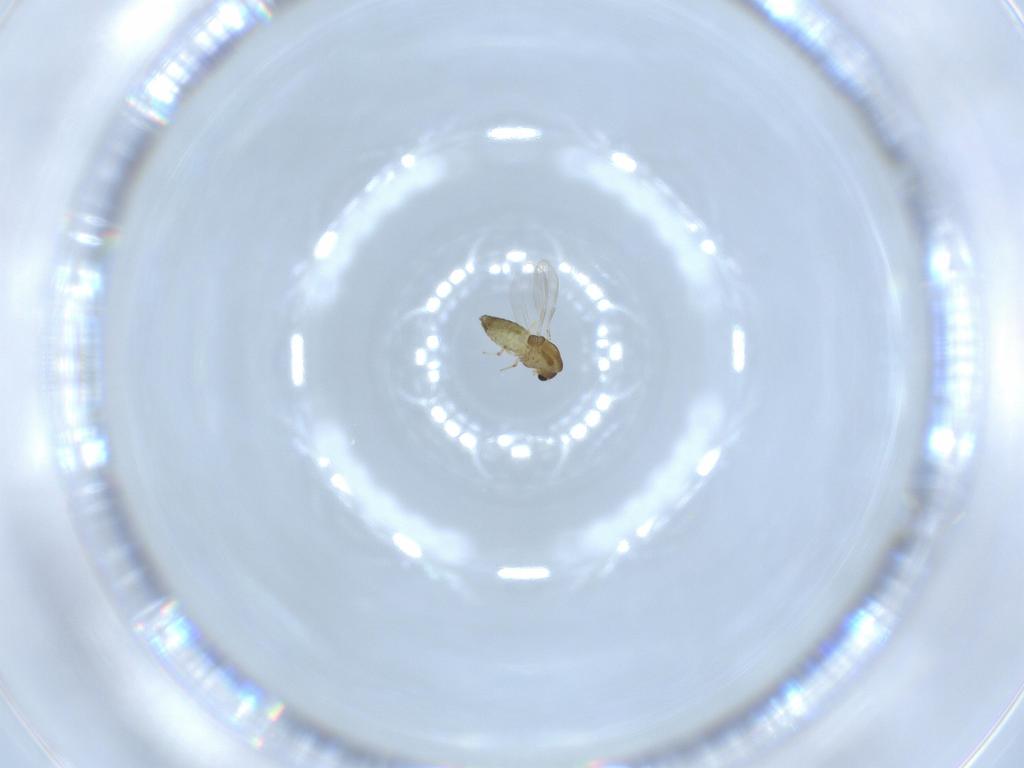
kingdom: Animalia
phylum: Arthropoda
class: Insecta
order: Diptera
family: Chironomidae
